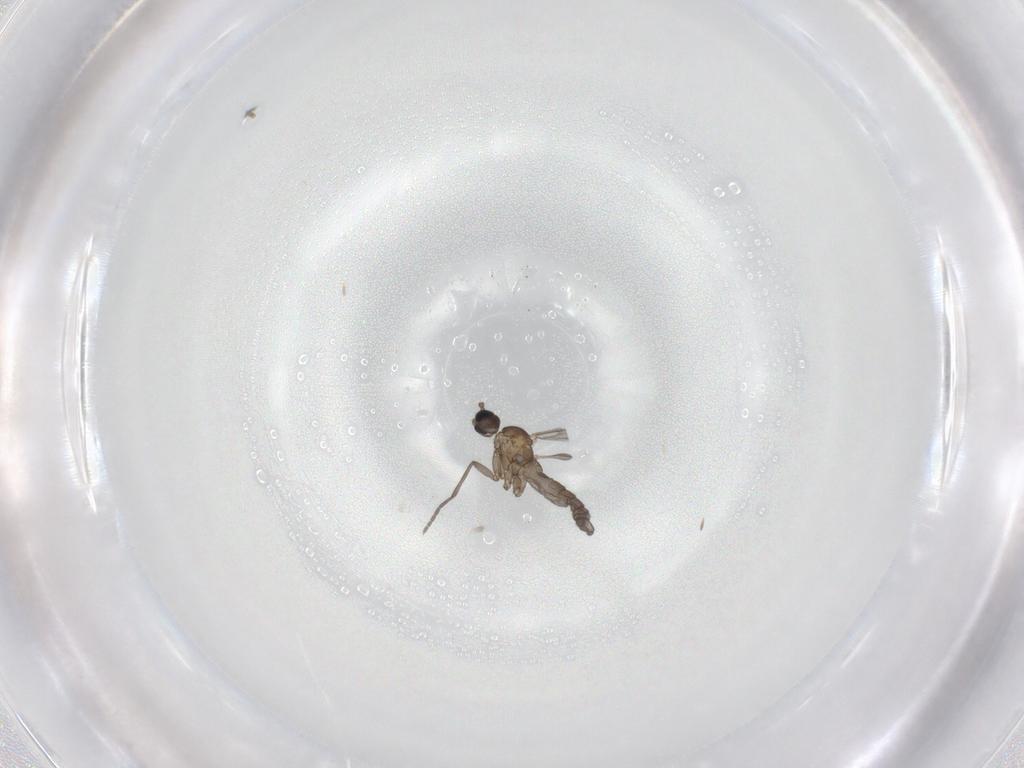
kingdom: Animalia
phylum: Arthropoda
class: Insecta
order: Diptera
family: Sciaridae
